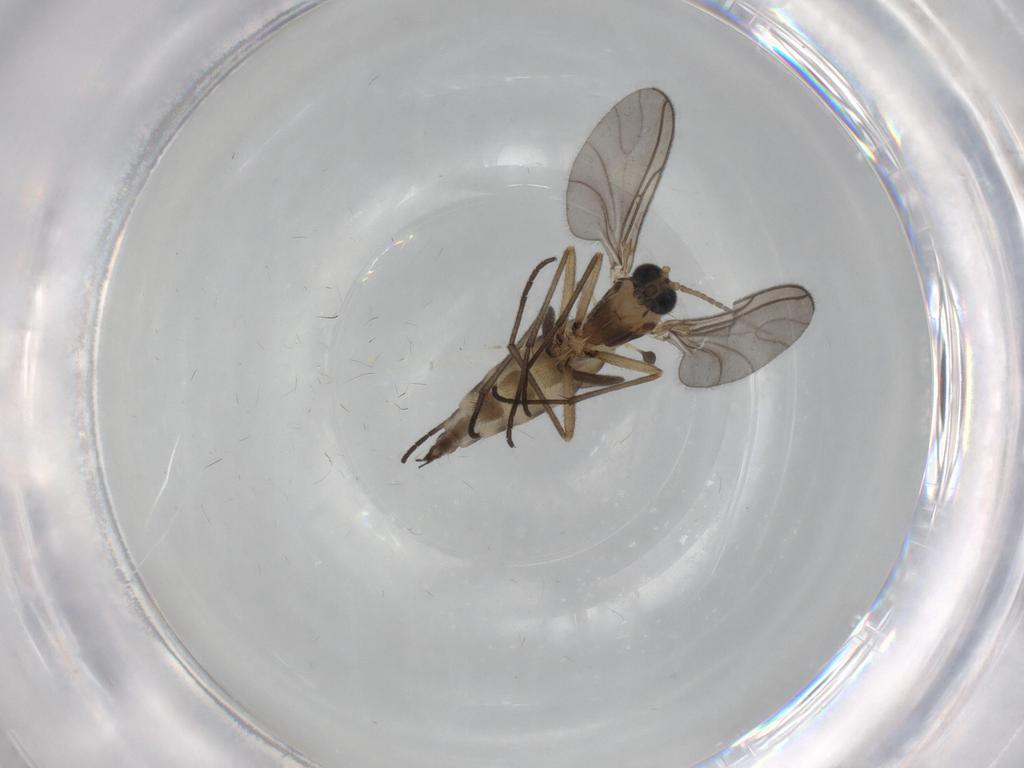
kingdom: Animalia
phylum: Arthropoda
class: Insecta
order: Diptera
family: Sciaridae
